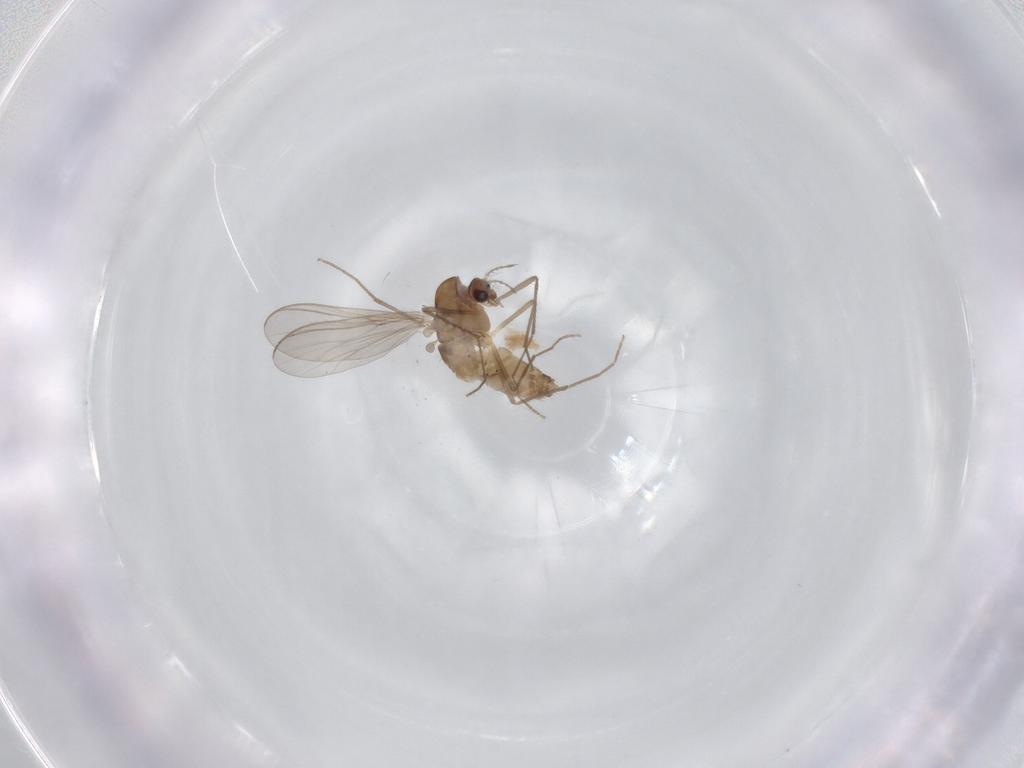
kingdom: Animalia
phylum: Arthropoda
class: Insecta
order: Diptera
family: Chironomidae
